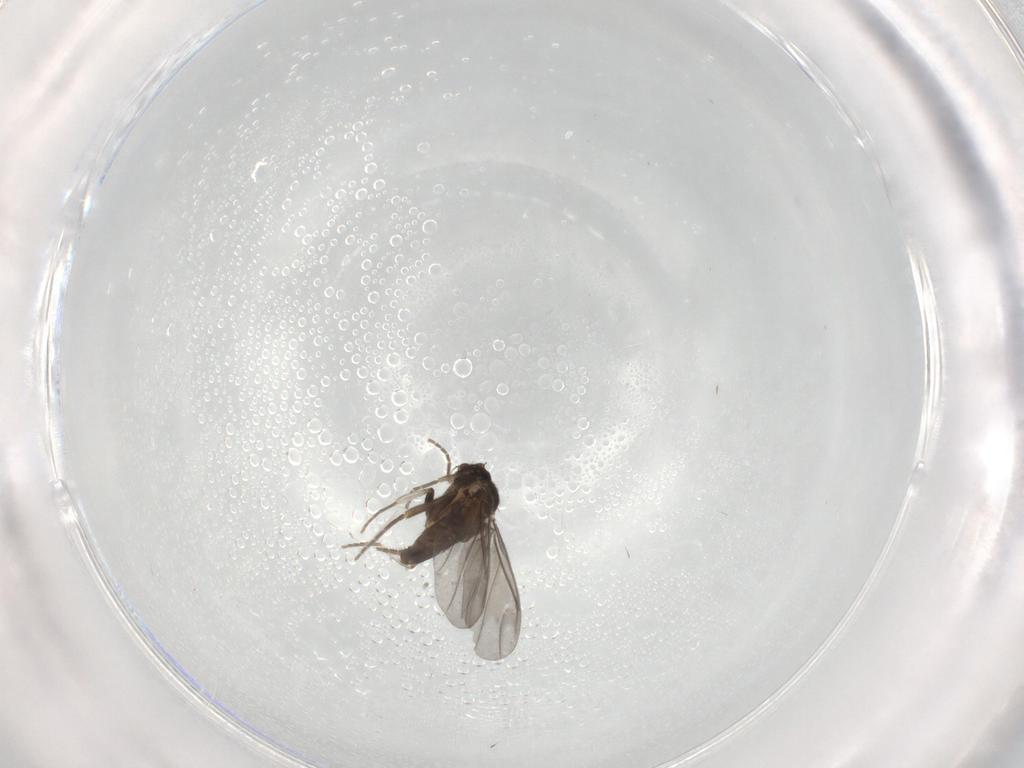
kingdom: Animalia
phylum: Arthropoda
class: Insecta
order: Diptera
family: Phoridae
